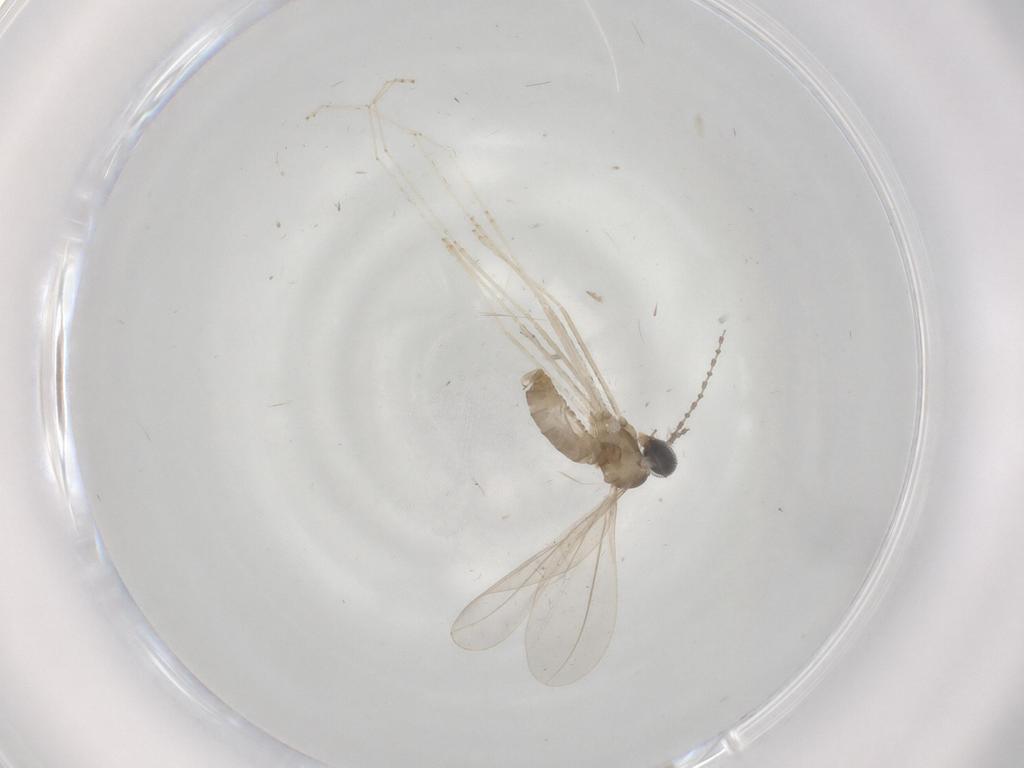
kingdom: Animalia
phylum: Arthropoda
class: Insecta
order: Diptera
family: Cecidomyiidae
